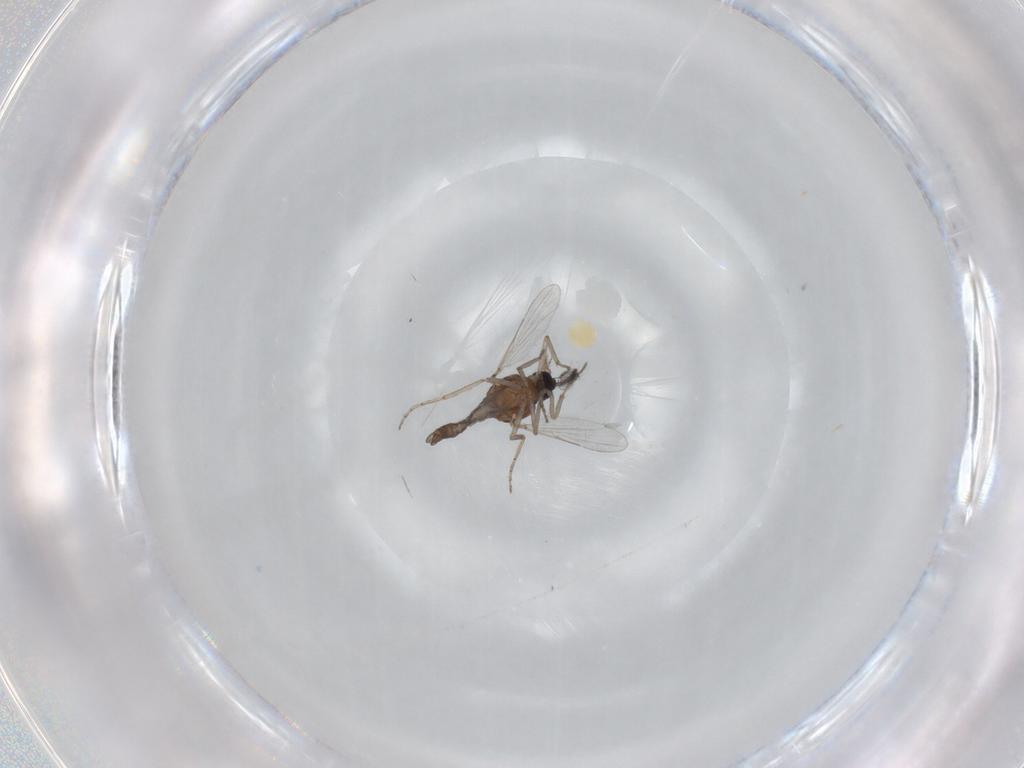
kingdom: Animalia
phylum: Arthropoda
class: Insecta
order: Diptera
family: Ceratopogonidae
